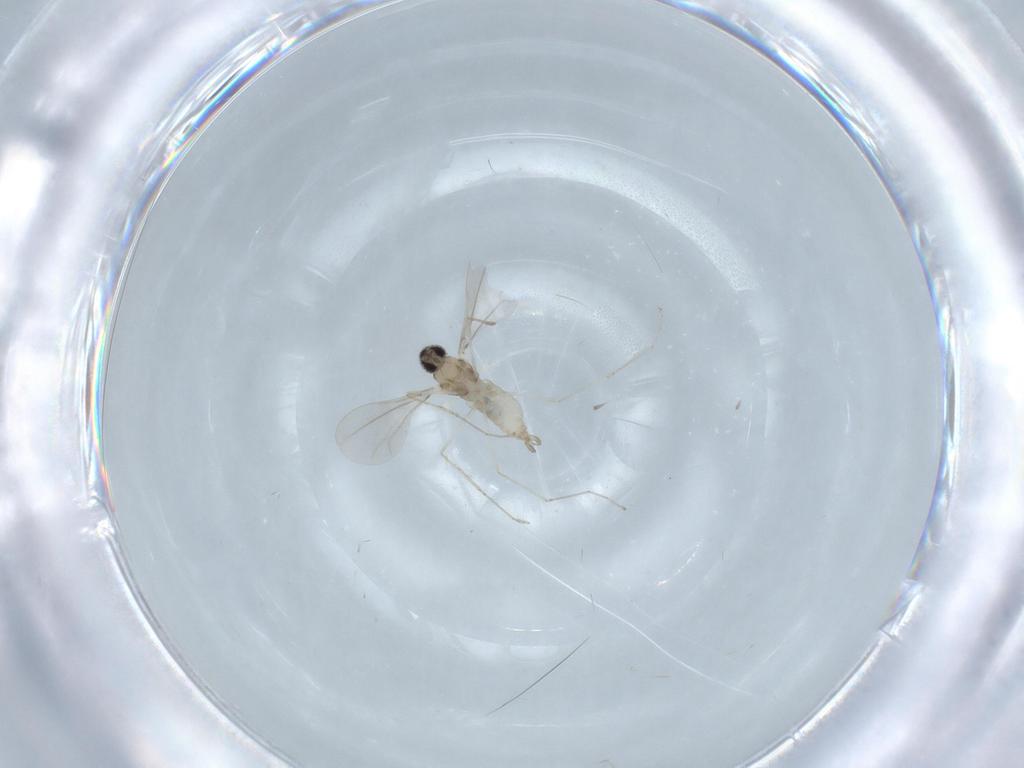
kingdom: Animalia
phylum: Arthropoda
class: Insecta
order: Diptera
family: Cecidomyiidae
